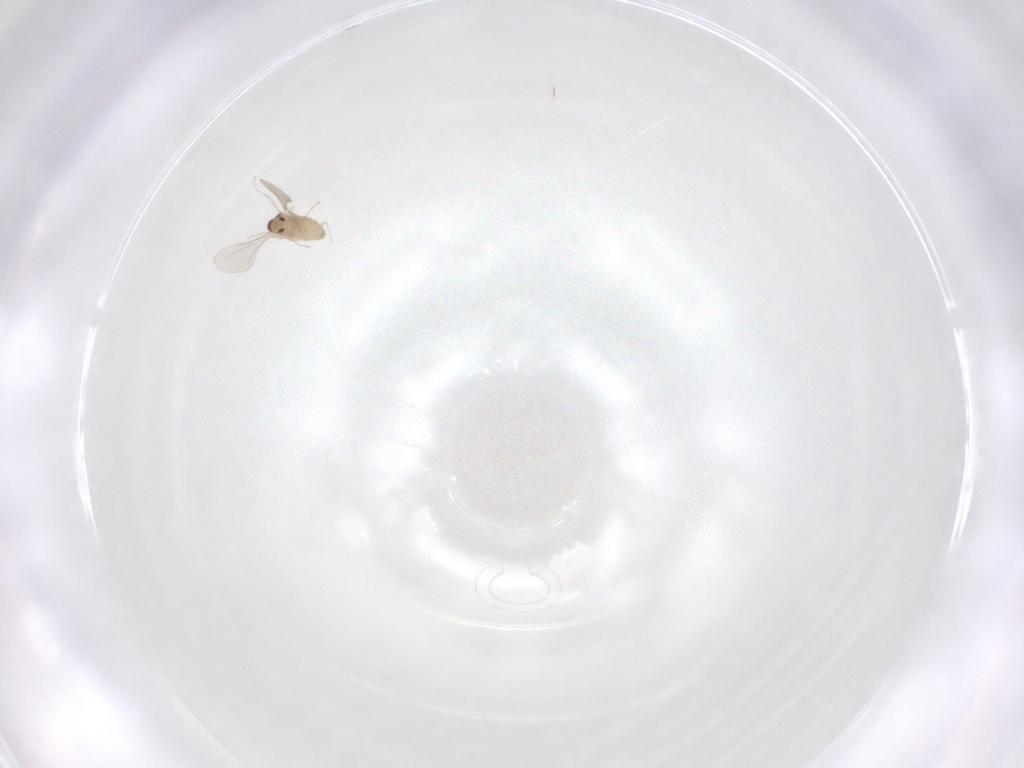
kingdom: Animalia
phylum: Arthropoda
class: Insecta
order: Diptera
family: Cecidomyiidae
